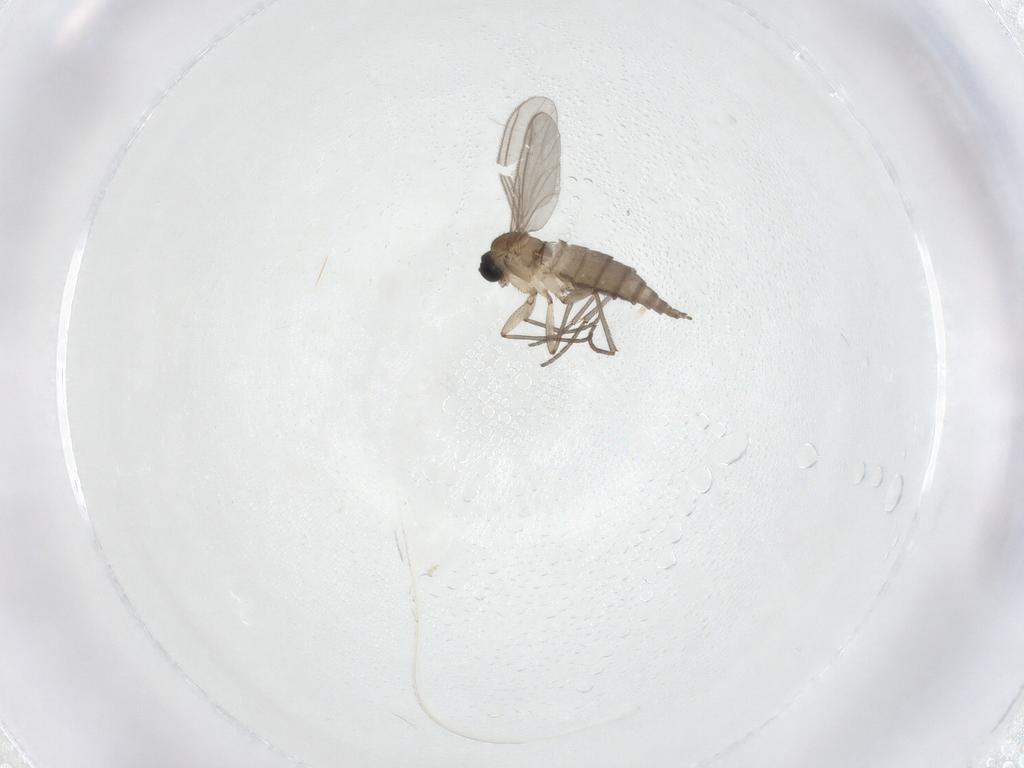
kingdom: Animalia
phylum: Arthropoda
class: Insecta
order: Diptera
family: Sciaridae
